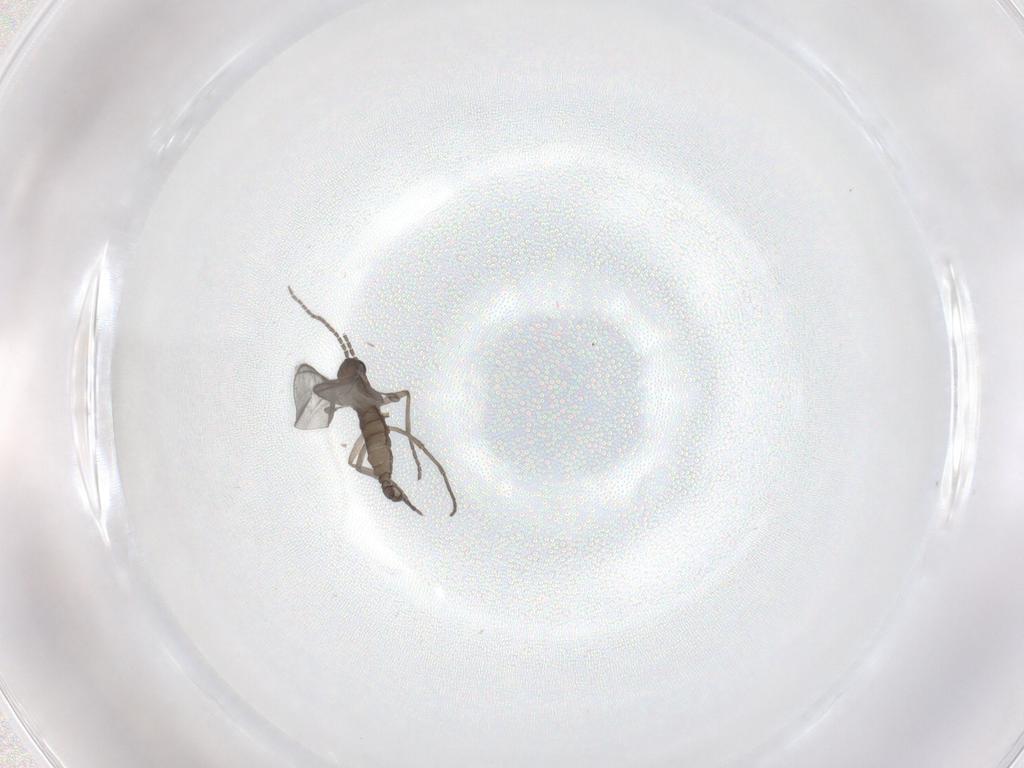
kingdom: Animalia
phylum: Arthropoda
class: Insecta
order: Diptera
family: Sciaridae
